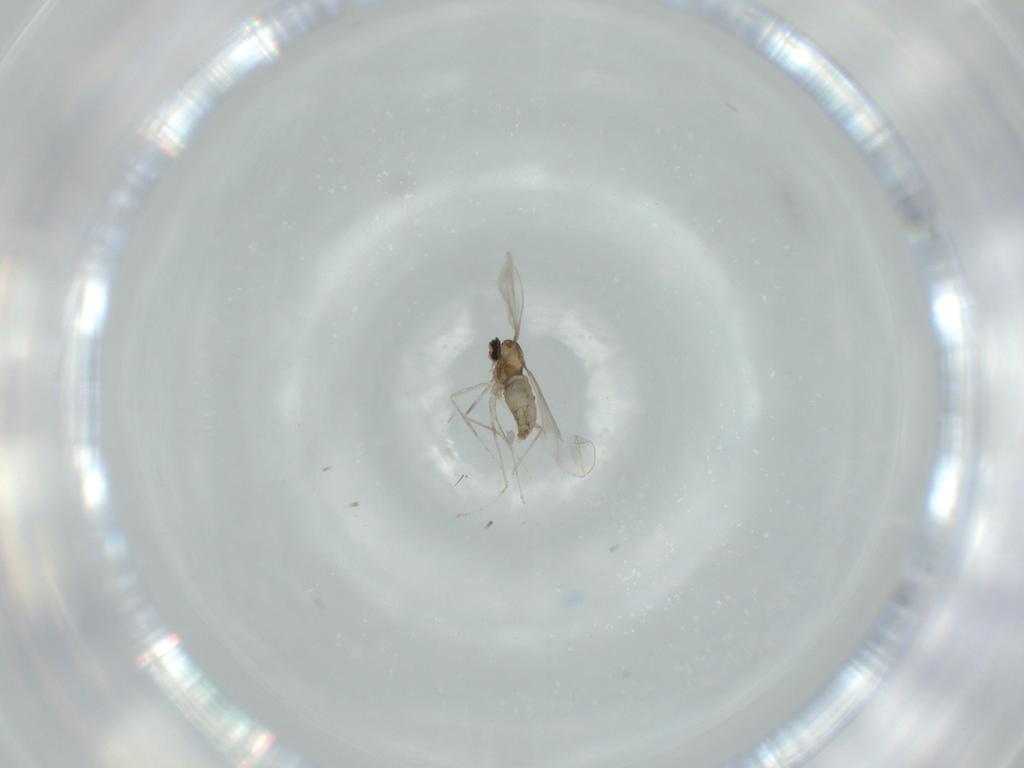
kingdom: Animalia
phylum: Arthropoda
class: Insecta
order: Diptera
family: Cecidomyiidae
